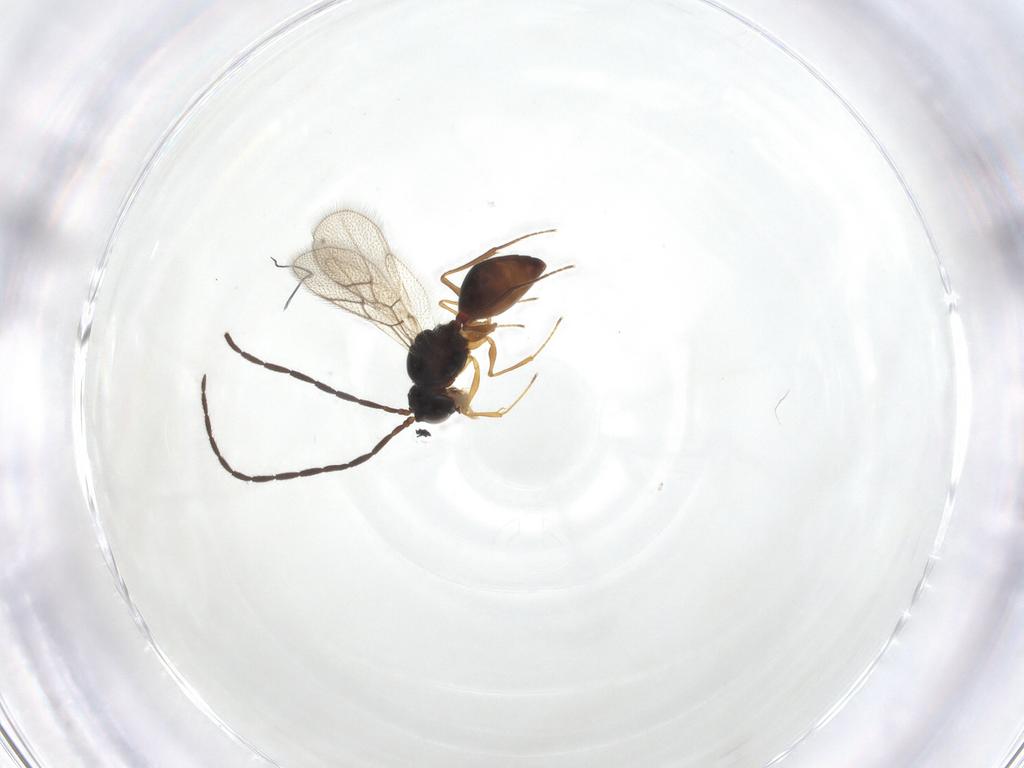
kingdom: Animalia
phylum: Arthropoda
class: Insecta
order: Hymenoptera
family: Figitidae
